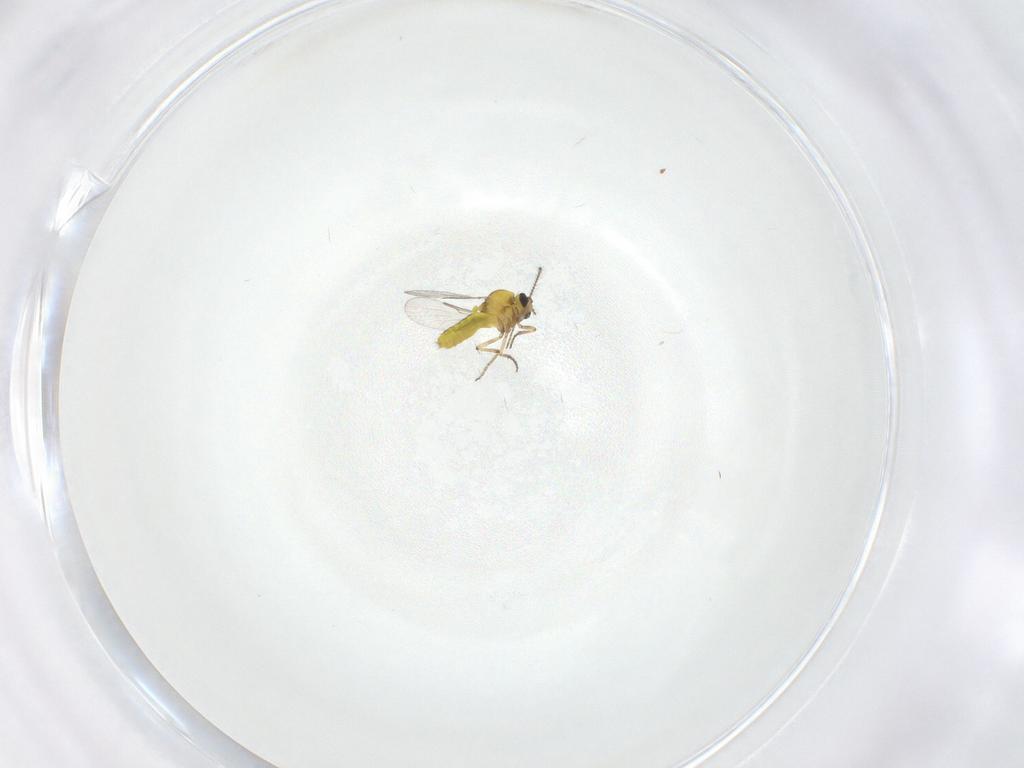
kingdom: Animalia
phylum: Arthropoda
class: Insecta
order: Diptera
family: Ceratopogonidae
